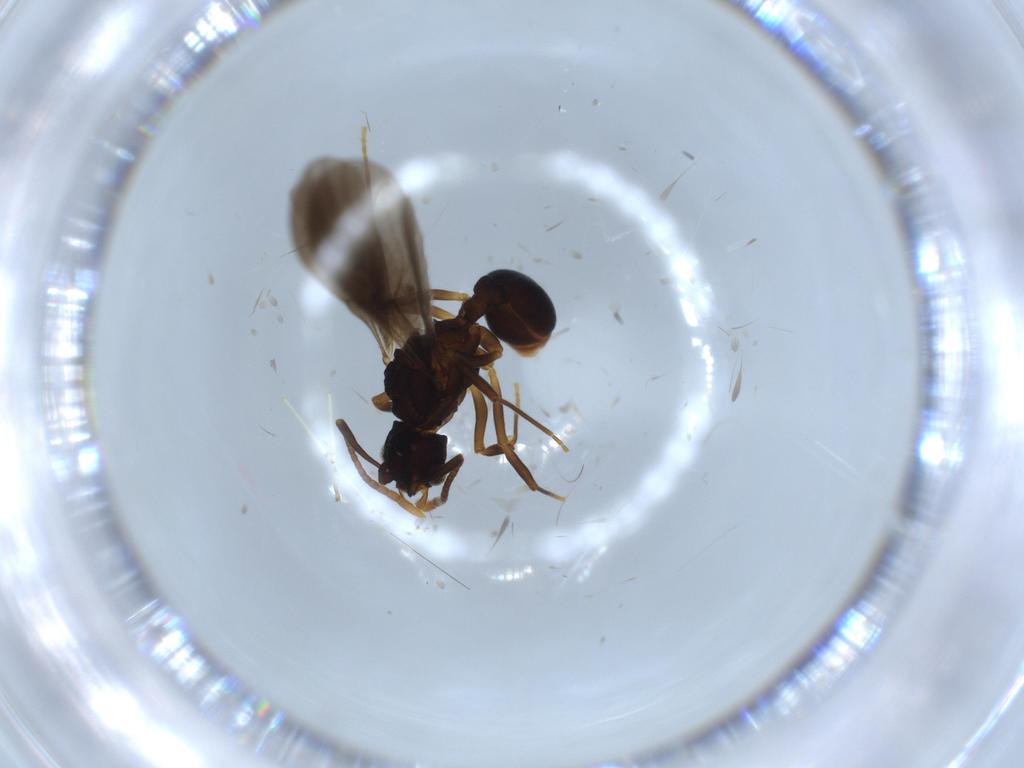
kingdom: Animalia
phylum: Arthropoda
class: Insecta
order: Hymenoptera
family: Formicidae
